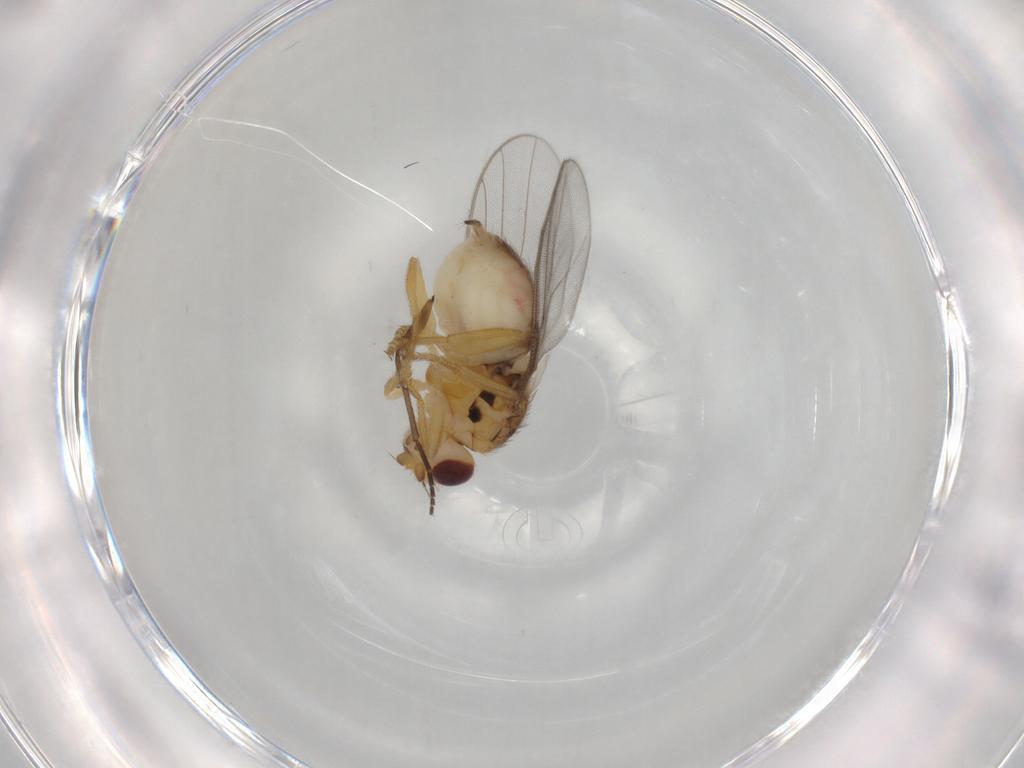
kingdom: Animalia
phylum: Arthropoda
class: Insecta
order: Diptera
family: Chloropidae
